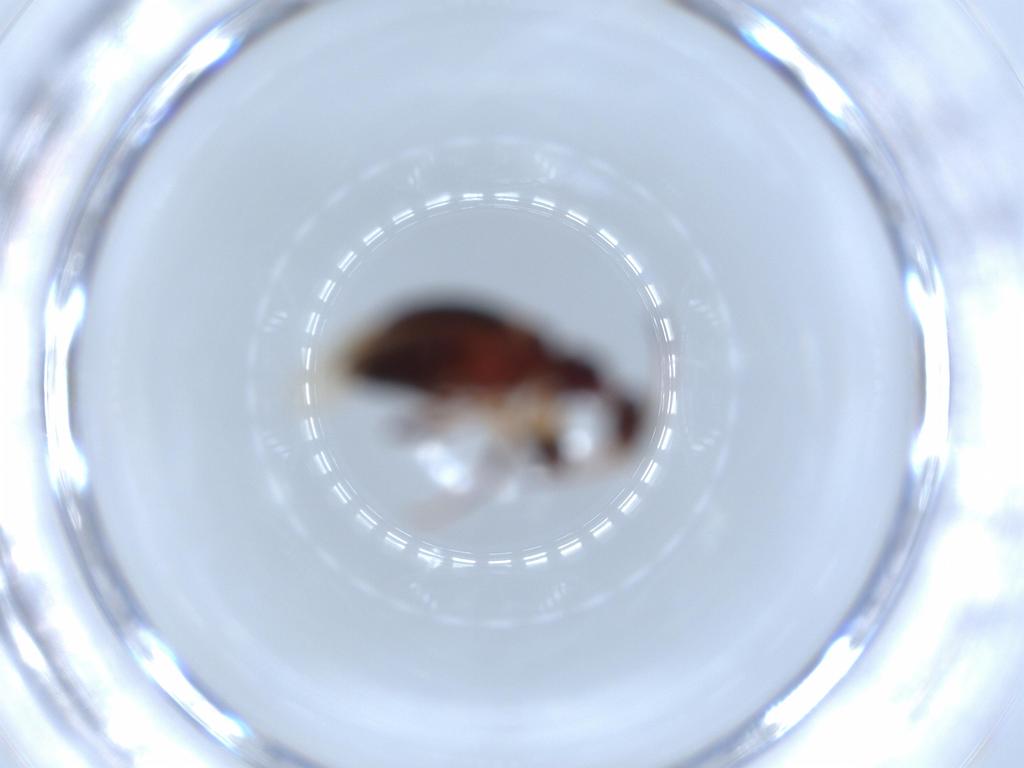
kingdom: Animalia
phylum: Arthropoda
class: Insecta
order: Coleoptera
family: Anthicidae
